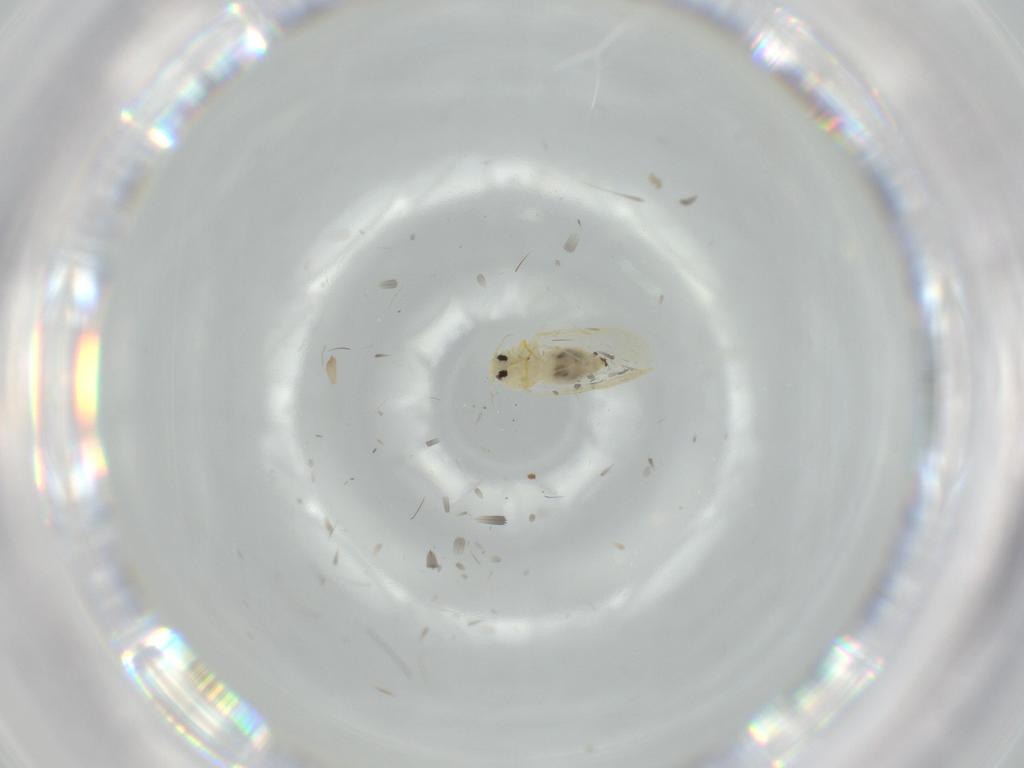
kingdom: Animalia
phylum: Arthropoda
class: Insecta
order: Hemiptera
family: Aleyrodidae
